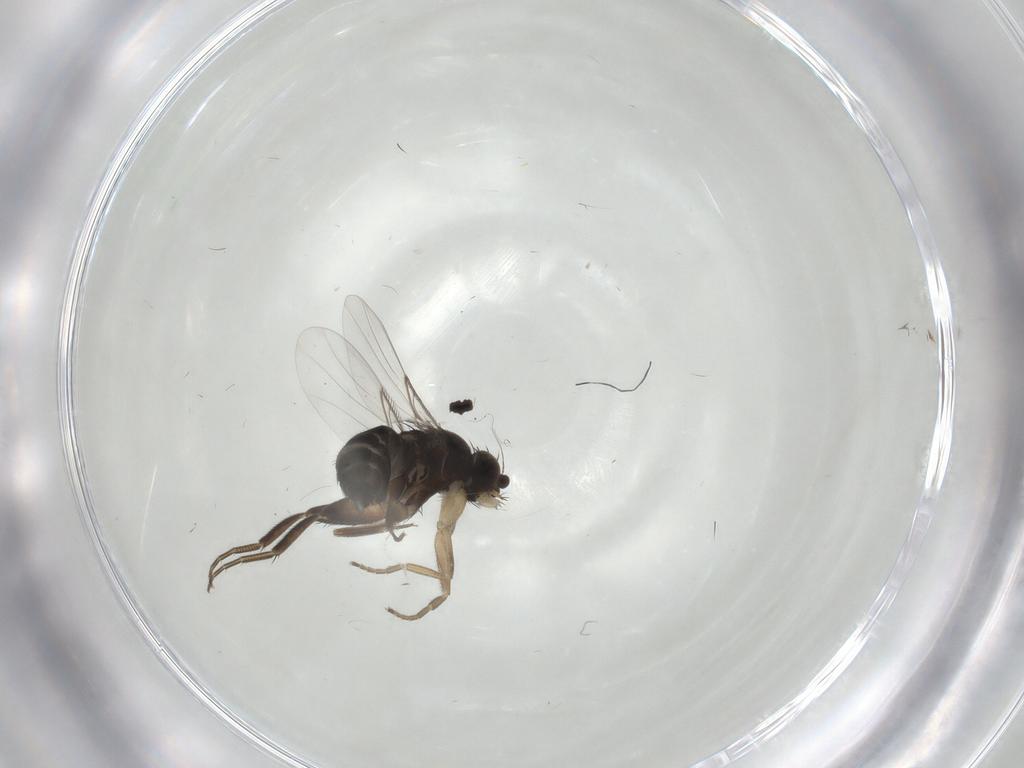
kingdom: Animalia
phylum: Arthropoda
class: Insecta
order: Diptera
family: Phoridae
